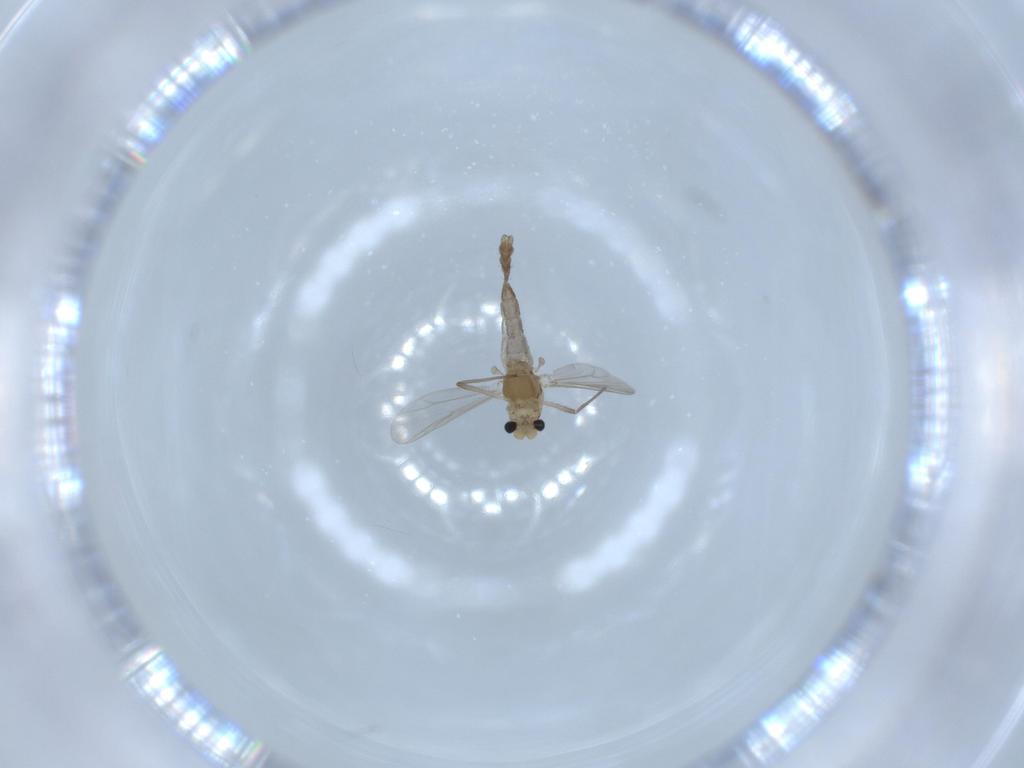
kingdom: Animalia
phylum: Arthropoda
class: Insecta
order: Diptera
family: Chironomidae
